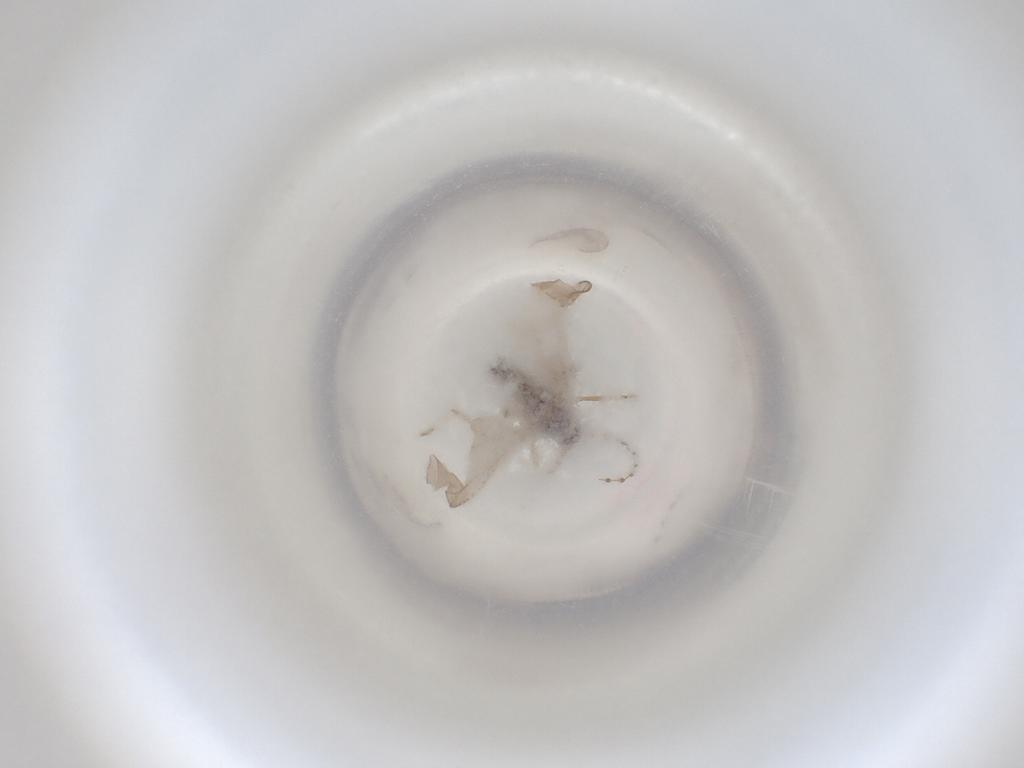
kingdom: Animalia
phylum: Arthropoda
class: Insecta
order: Diptera
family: Cecidomyiidae
